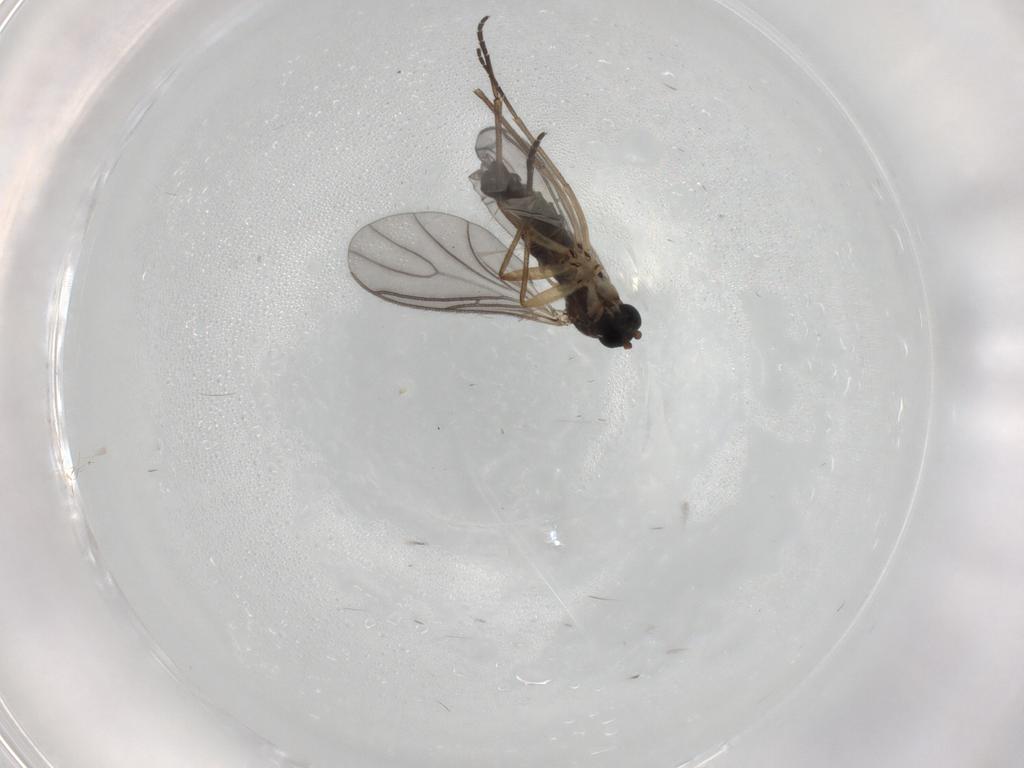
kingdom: Animalia
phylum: Arthropoda
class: Insecta
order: Diptera
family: Sciaridae
